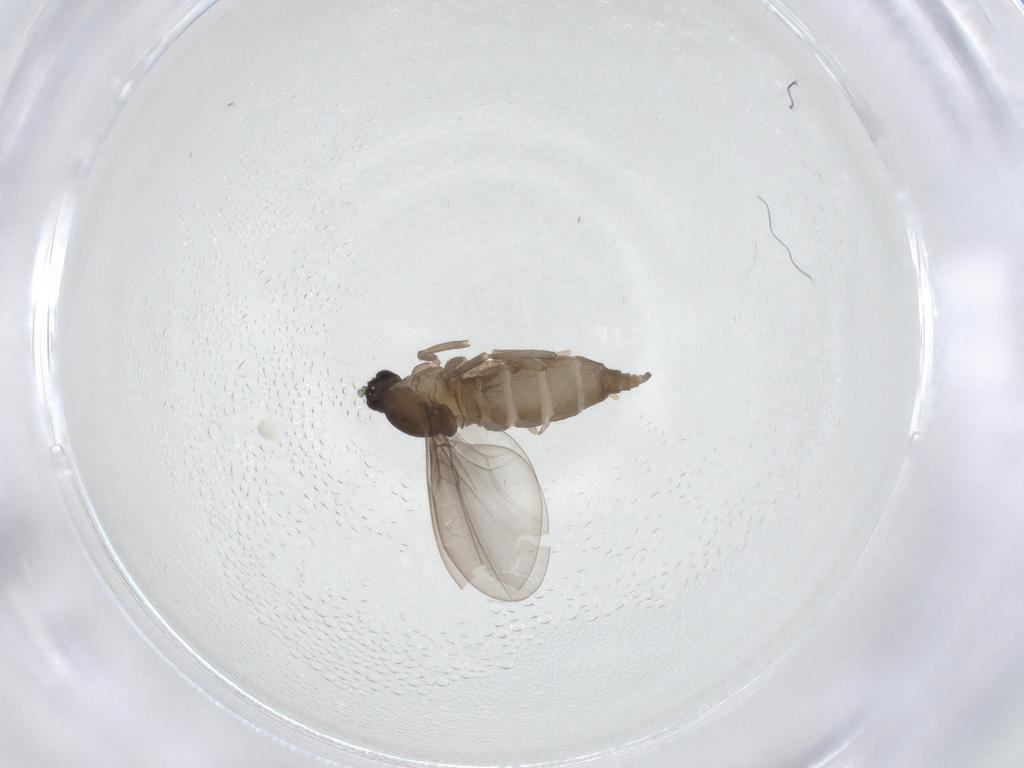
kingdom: Animalia
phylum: Arthropoda
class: Insecta
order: Diptera
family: Cecidomyiidae
